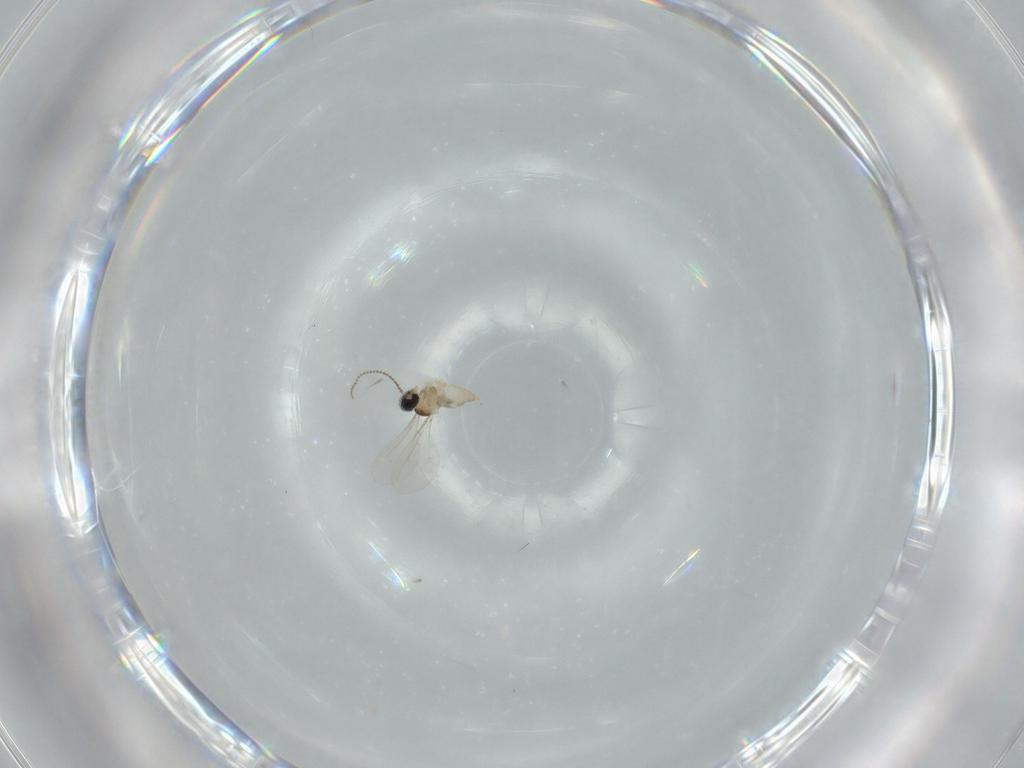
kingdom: Animalia
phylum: Arthropoda
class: Insecta
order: Diptera
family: Cecidomyiidae
